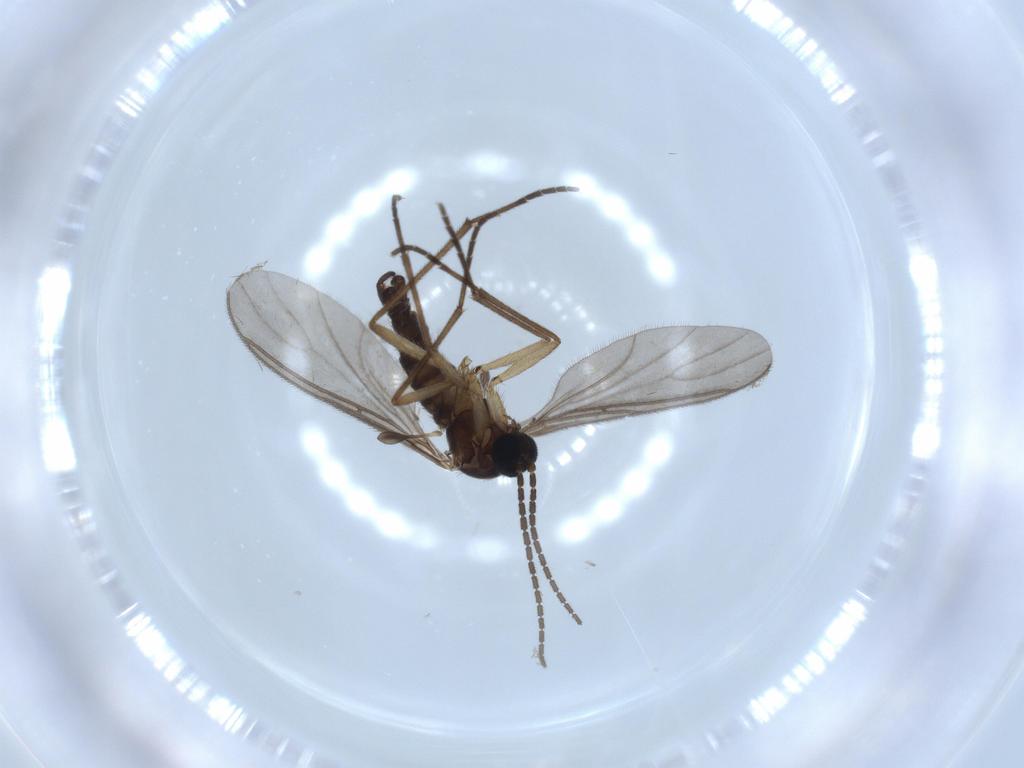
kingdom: Animalia
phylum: Arthropoda
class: Insecta
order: Diptera
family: Sciaridae
